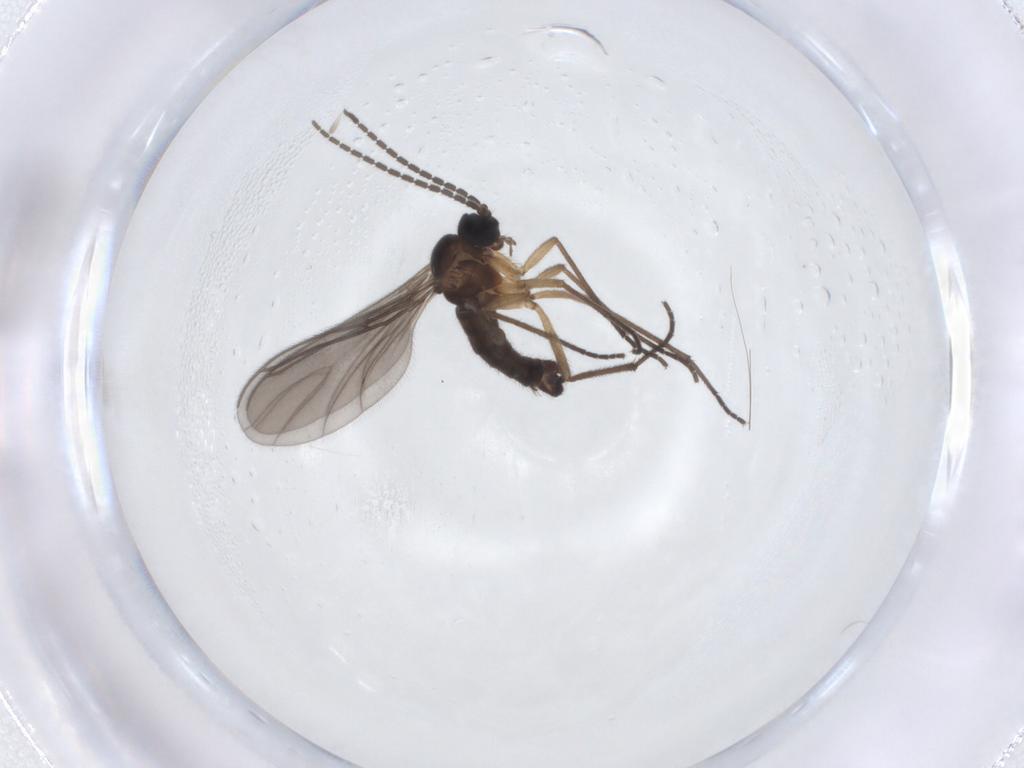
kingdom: Animalia
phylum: Arthropoda
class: Insecta
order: Diptera
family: Sciaridae
